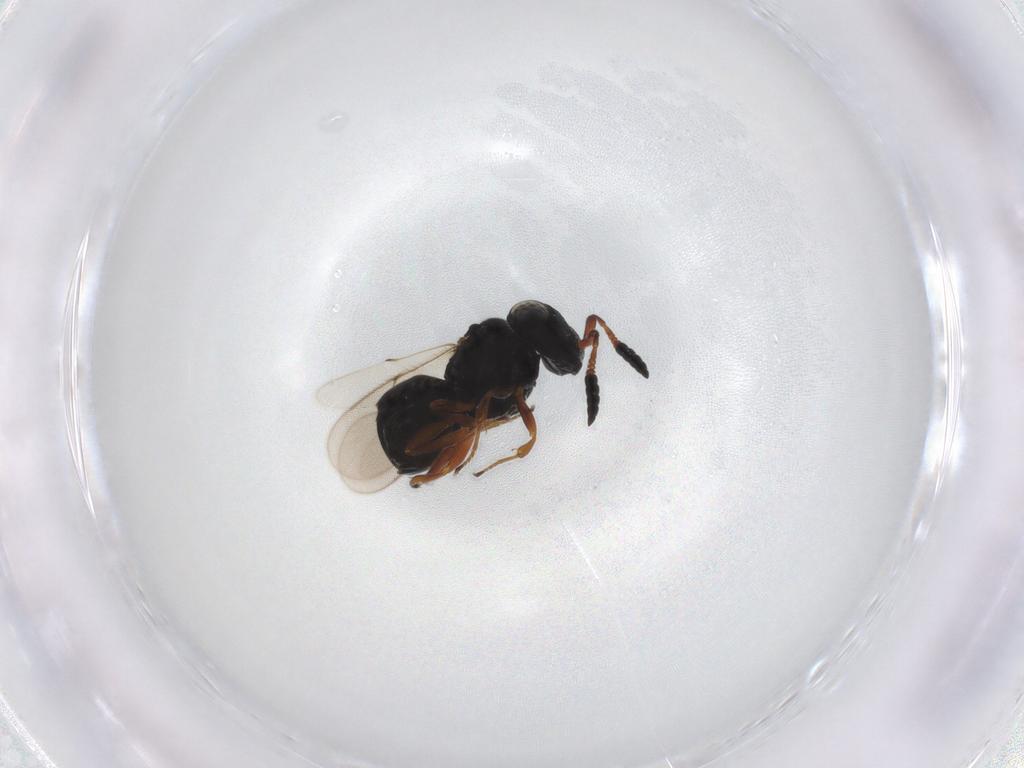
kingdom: Animalia
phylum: Arthropoda
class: Insecta
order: Hymenoptera
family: Scelionidae
